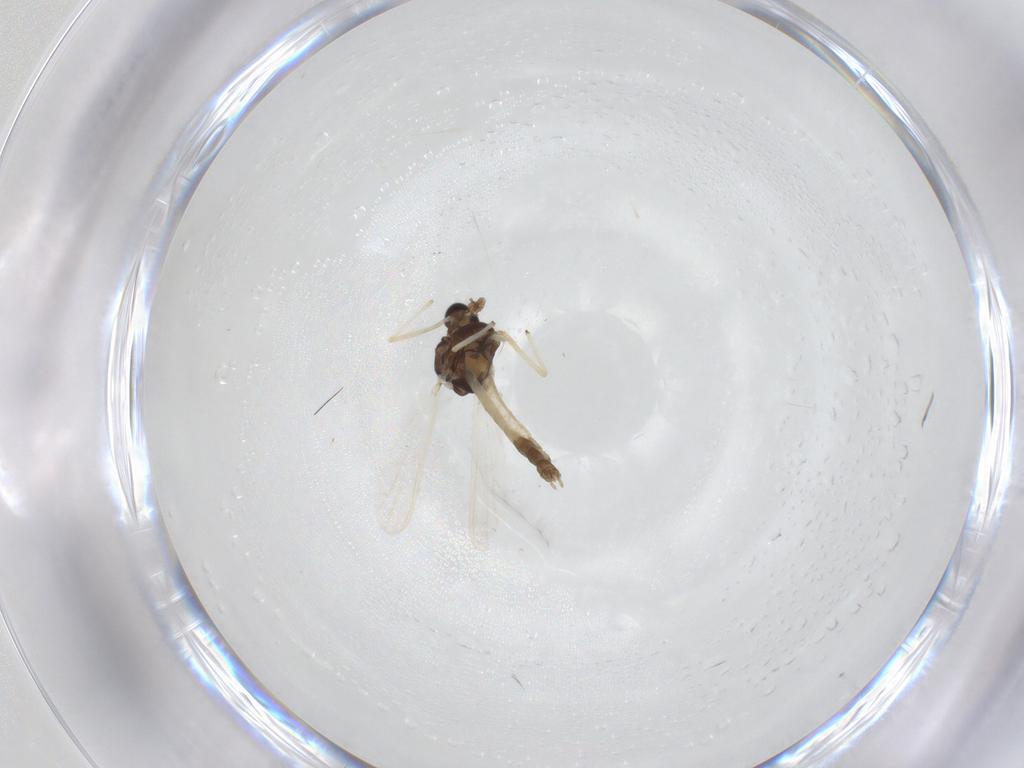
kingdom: Animalia
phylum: Arthropoda
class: Insecta
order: Diptera
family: Chironomidae
